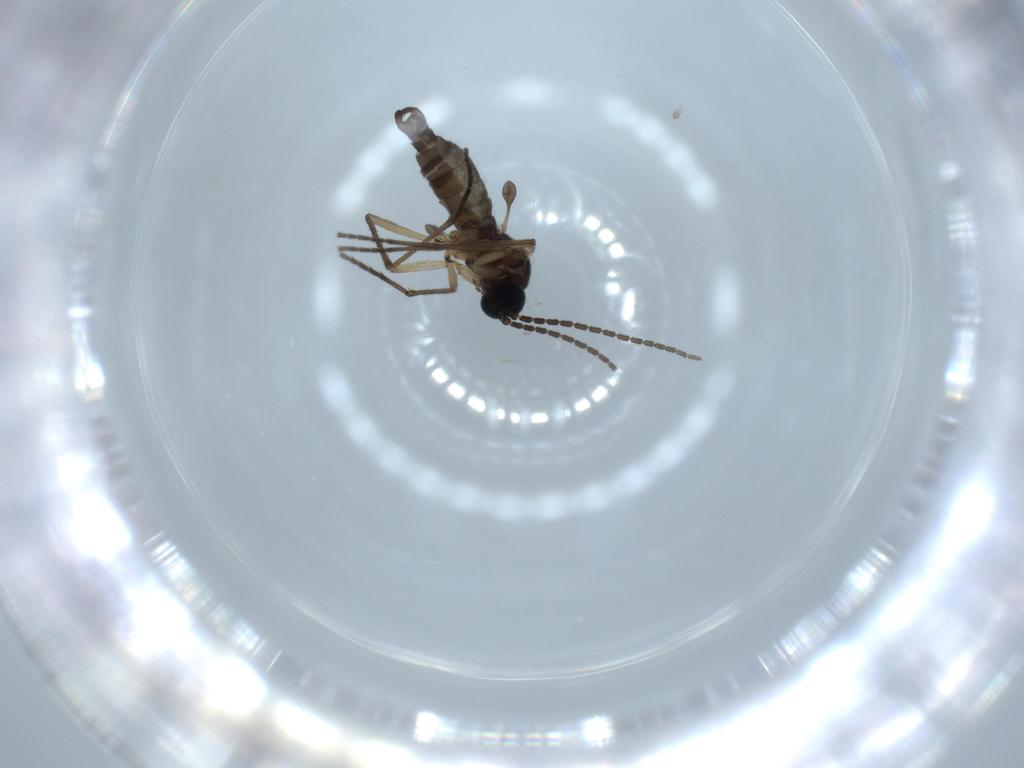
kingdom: Animalia
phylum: Arthropoda
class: Insecta
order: Diptera
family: Sciaridae
